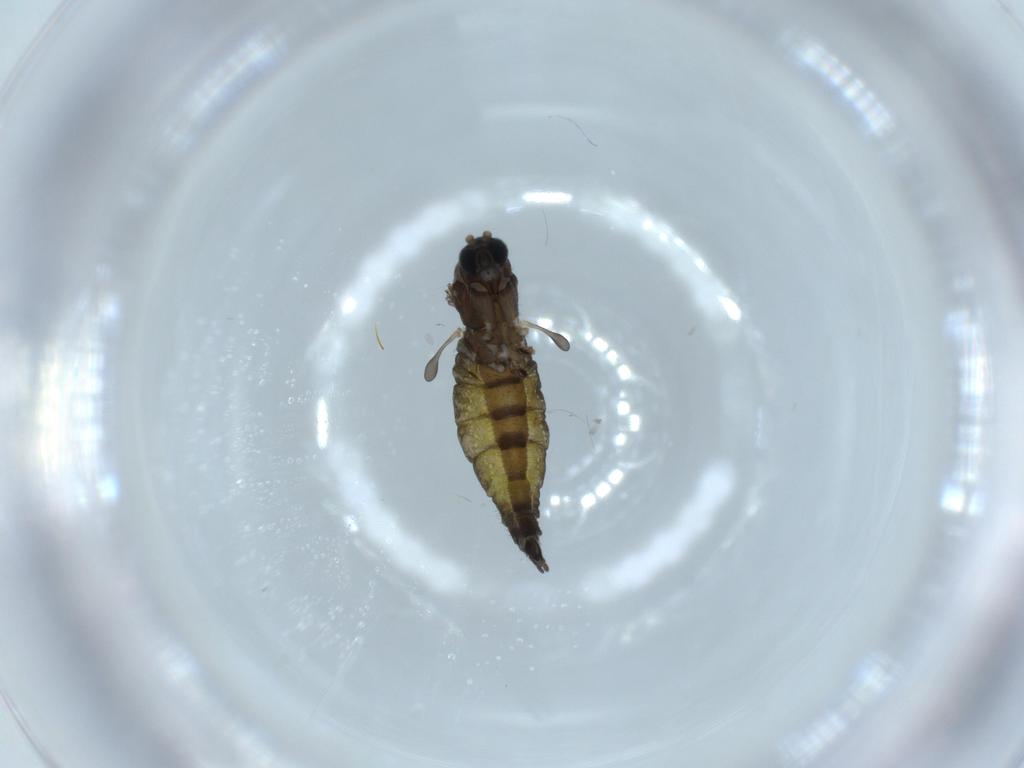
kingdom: Animalia
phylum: Arthropoda
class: Insecta
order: Diptera
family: Sciaridae
